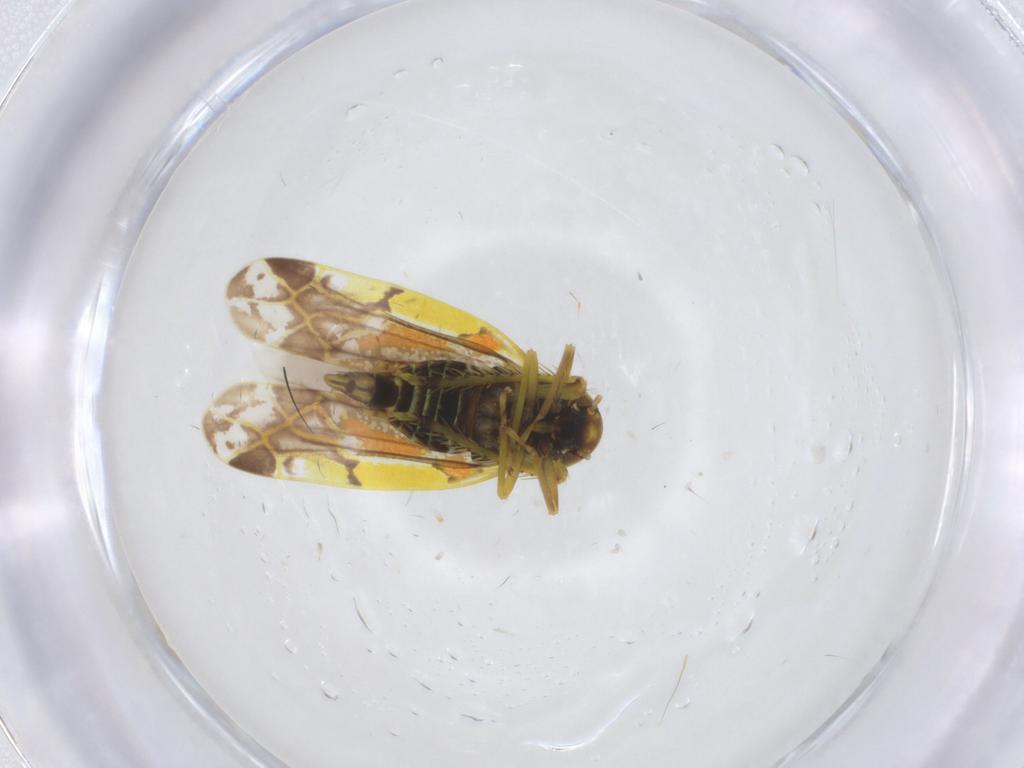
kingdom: Animalia
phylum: Arthropoda
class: Insecta
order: Hemiptera
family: Cicadellidae
